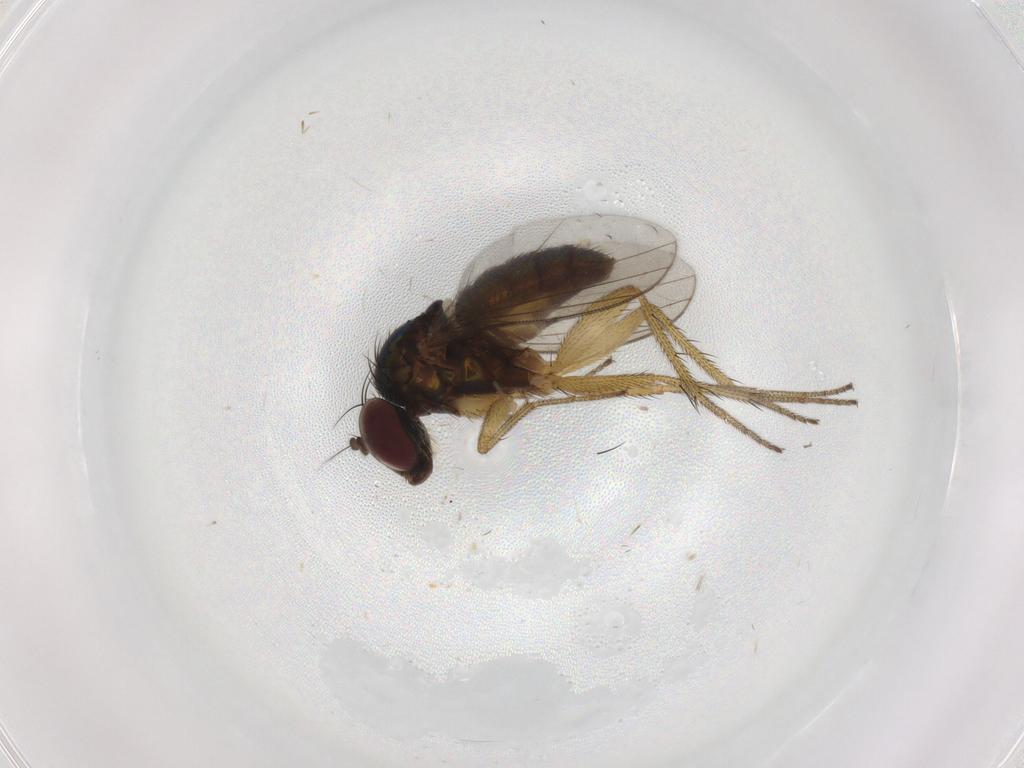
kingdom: Animalia
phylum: Arthropoda
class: Insecta
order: Diptera
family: Dolichopodidae
